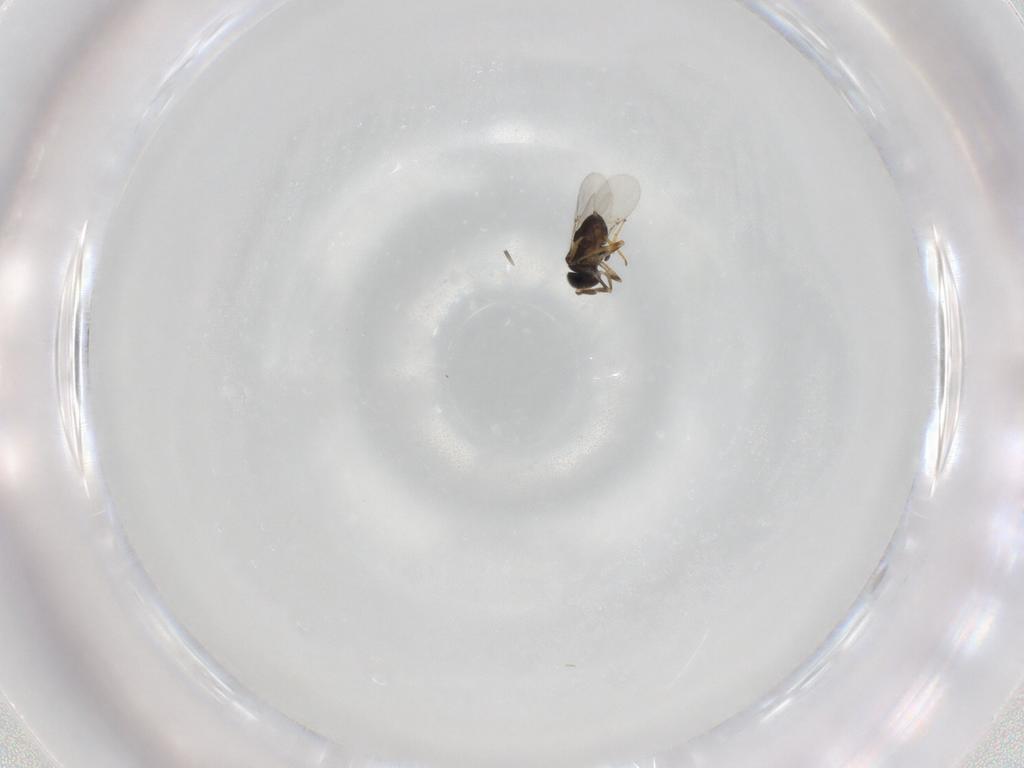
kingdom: Animalia
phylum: Arthropoda
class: Insecta
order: Hymenoptera
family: Encyrtidae
